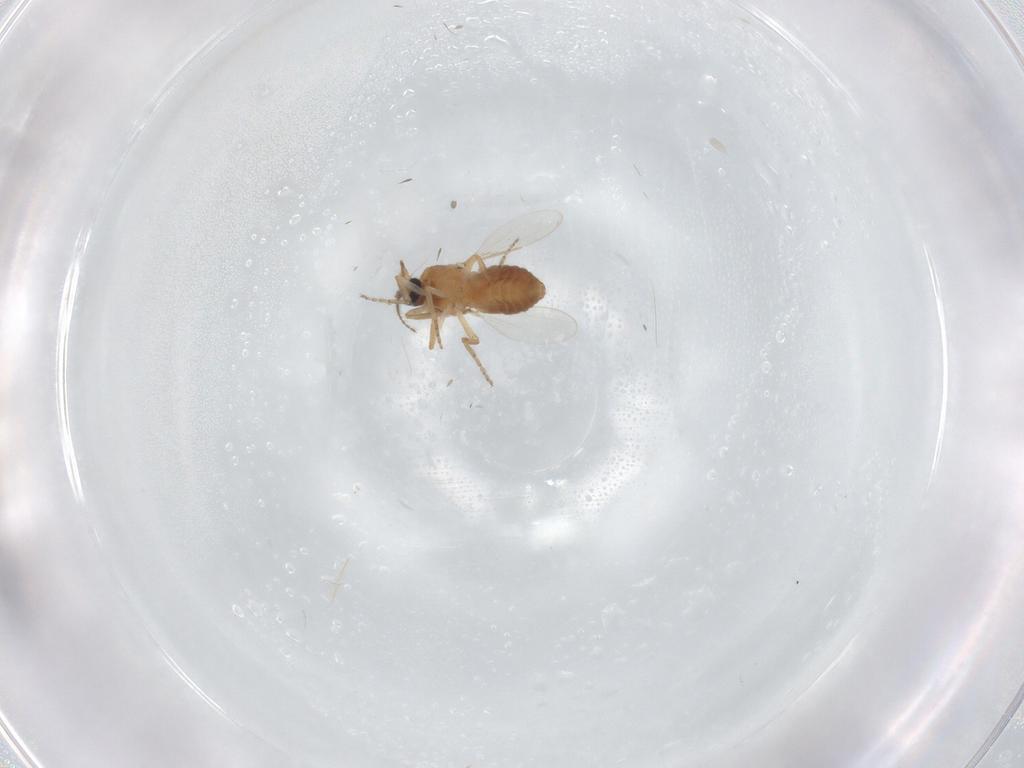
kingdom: Animalia
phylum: Arthropoda
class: Insecta
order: Diptera
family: Ceratopogonidae
